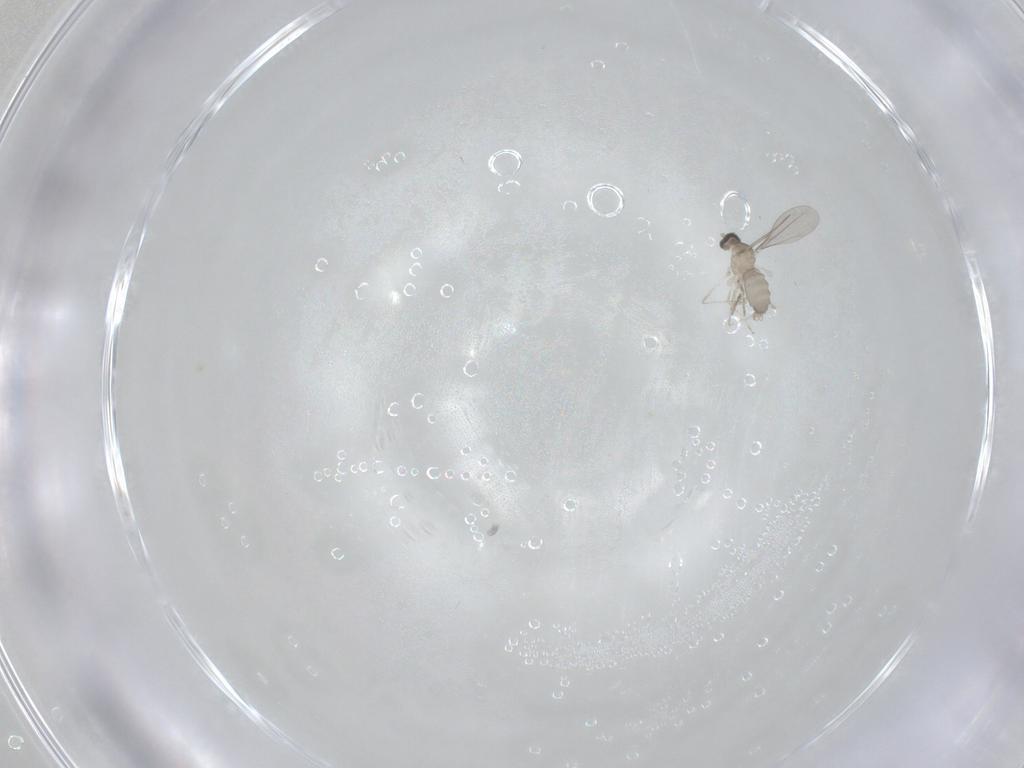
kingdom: Animalia
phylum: Arthropoda
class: Insecta
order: Diptera
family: Cecidomyiidae
